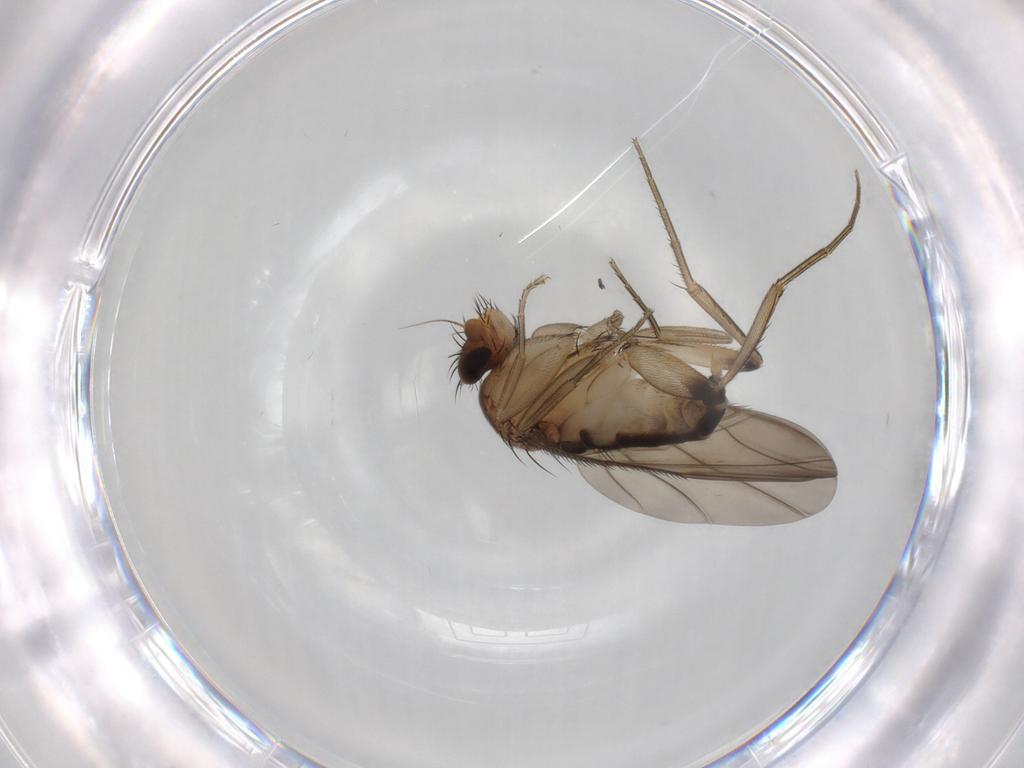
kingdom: Animalia
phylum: Arthropoda
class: Insecta
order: Diptera
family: Phoridae
